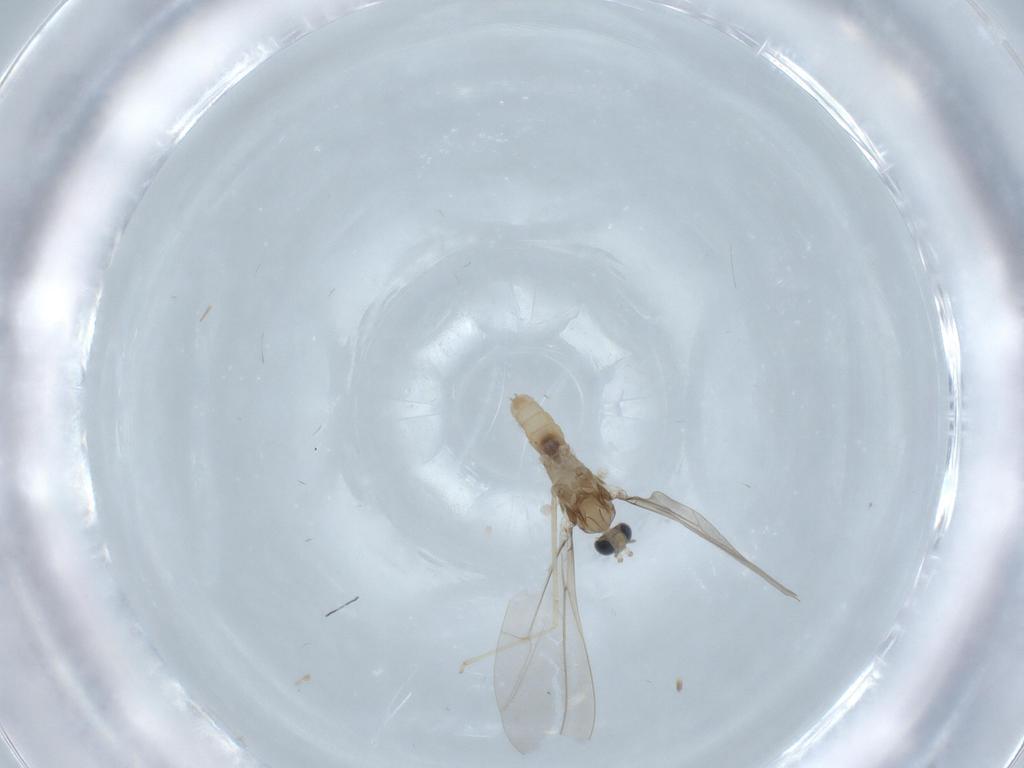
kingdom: Animalia
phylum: Arthropoda
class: Insecta
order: Diptera
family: Cecidomyiidae
